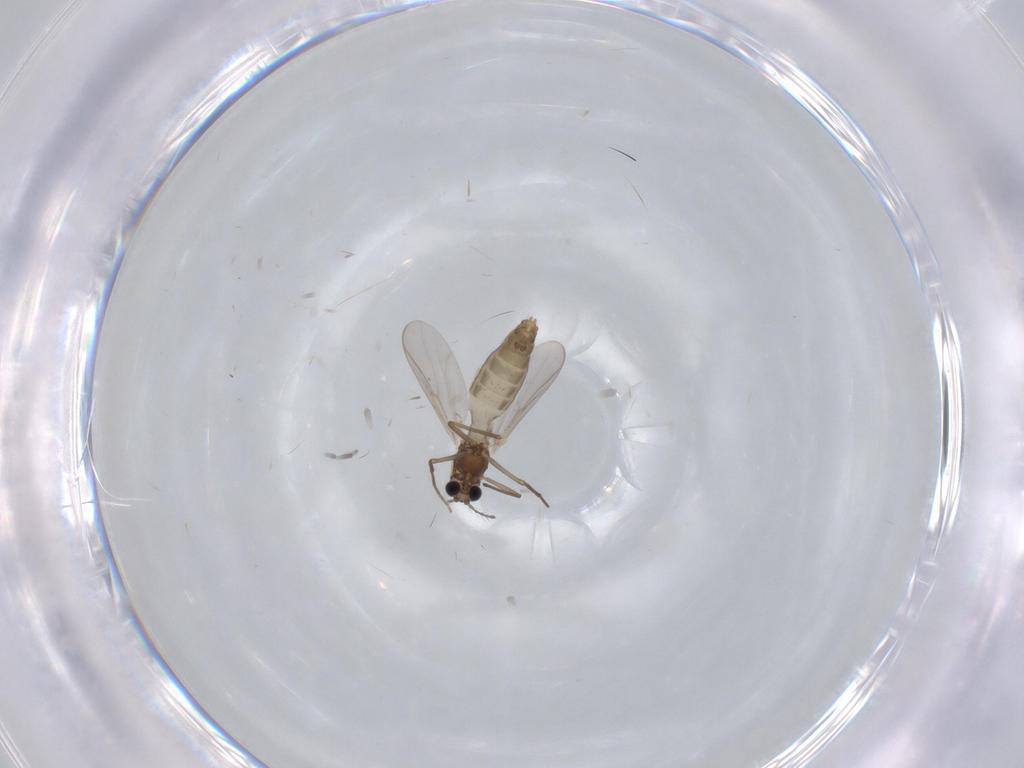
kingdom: Animalia
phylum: Arthropoda
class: Insecta
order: Diptera
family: Chironomidae
